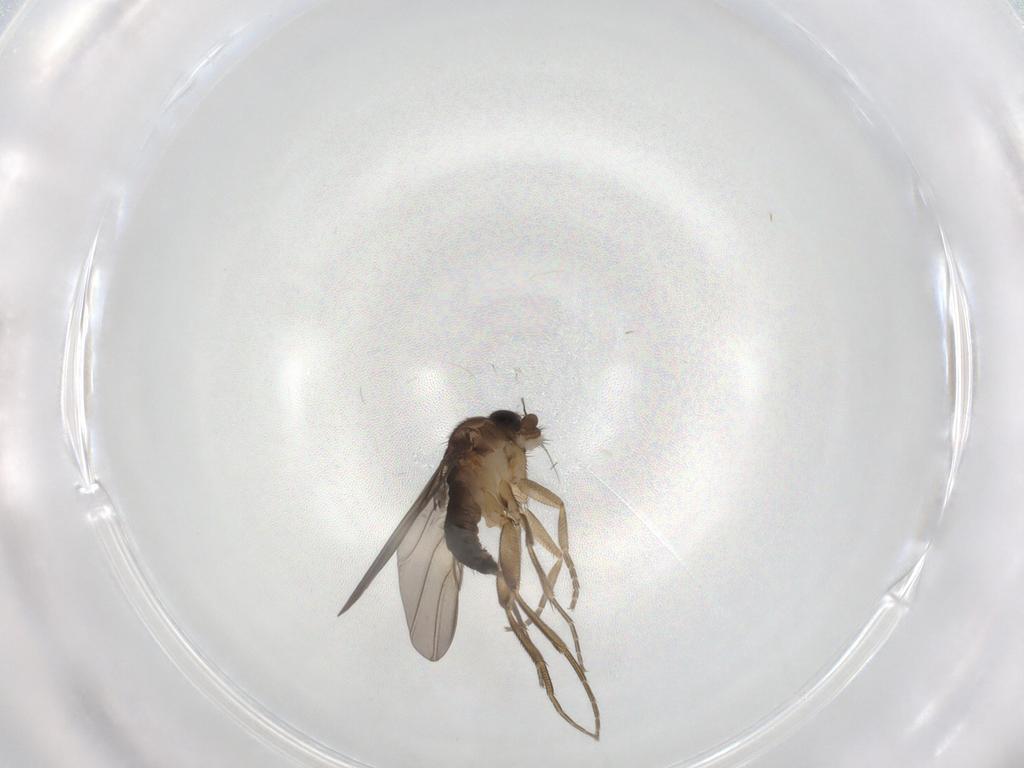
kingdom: Animalia
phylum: Arthropoda
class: Insecta
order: Diptera
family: Phoridae
